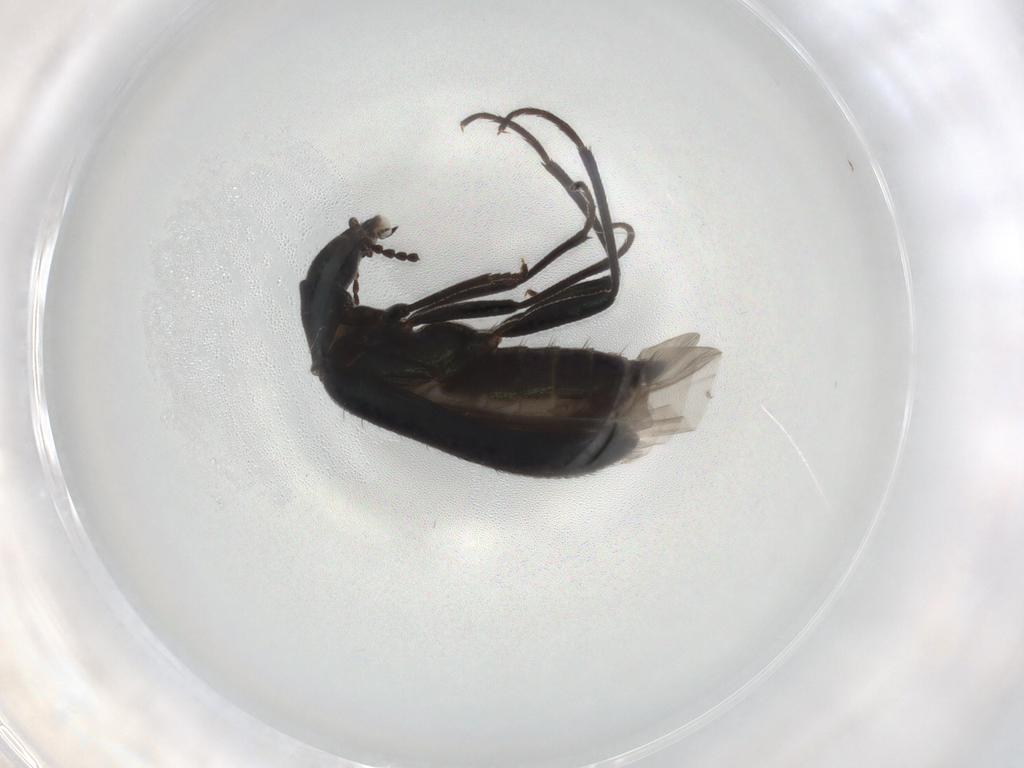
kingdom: Animalia
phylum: Arthropoda
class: Insecta
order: Coleoptera
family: Melyridae
